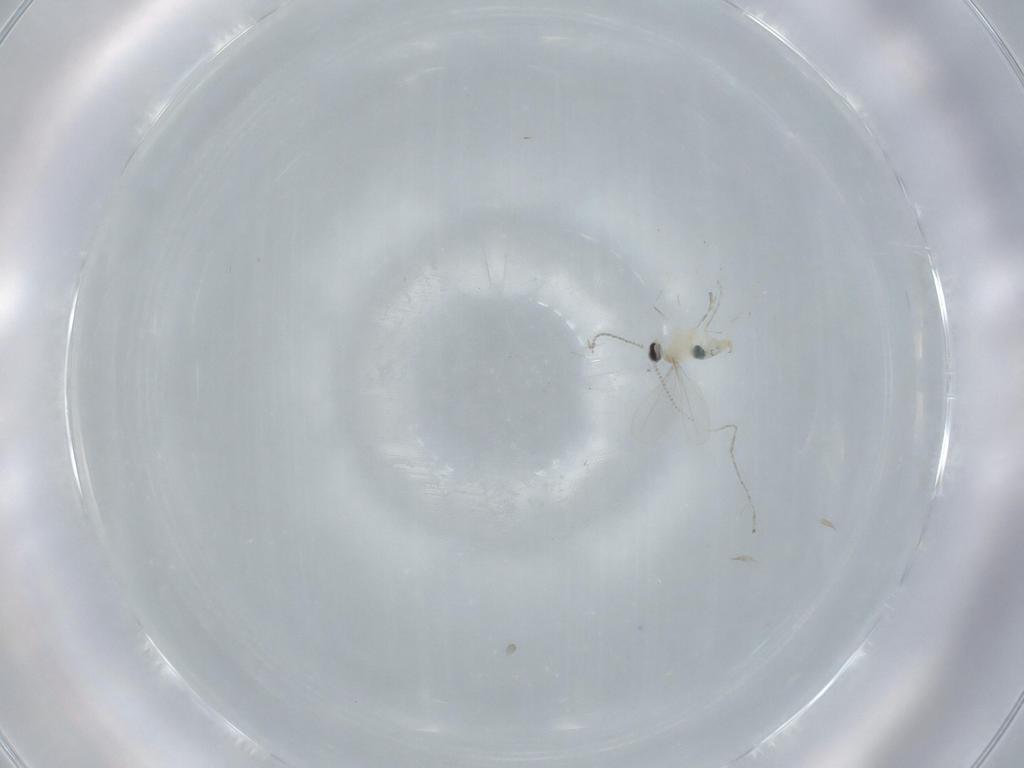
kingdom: Animalia
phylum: Arthropoda
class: Insecta
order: Diptera
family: Cecidomyiidae
